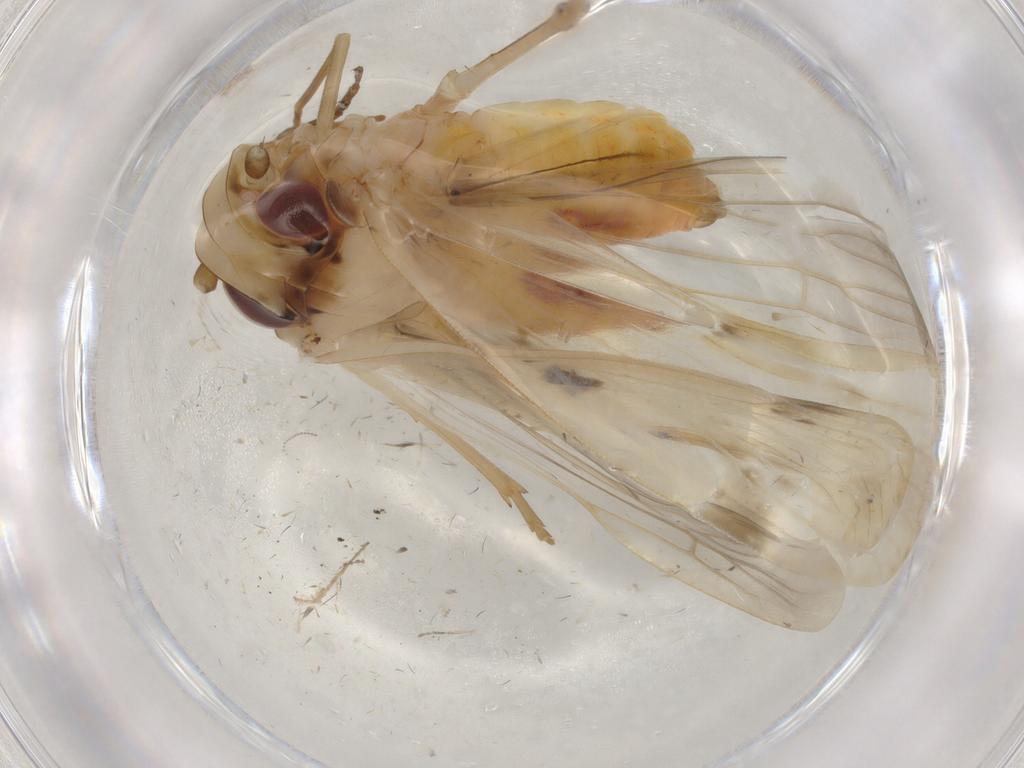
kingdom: Animalia
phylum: Arthropoda
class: Insecta
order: Hemiptera
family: Achilidae
